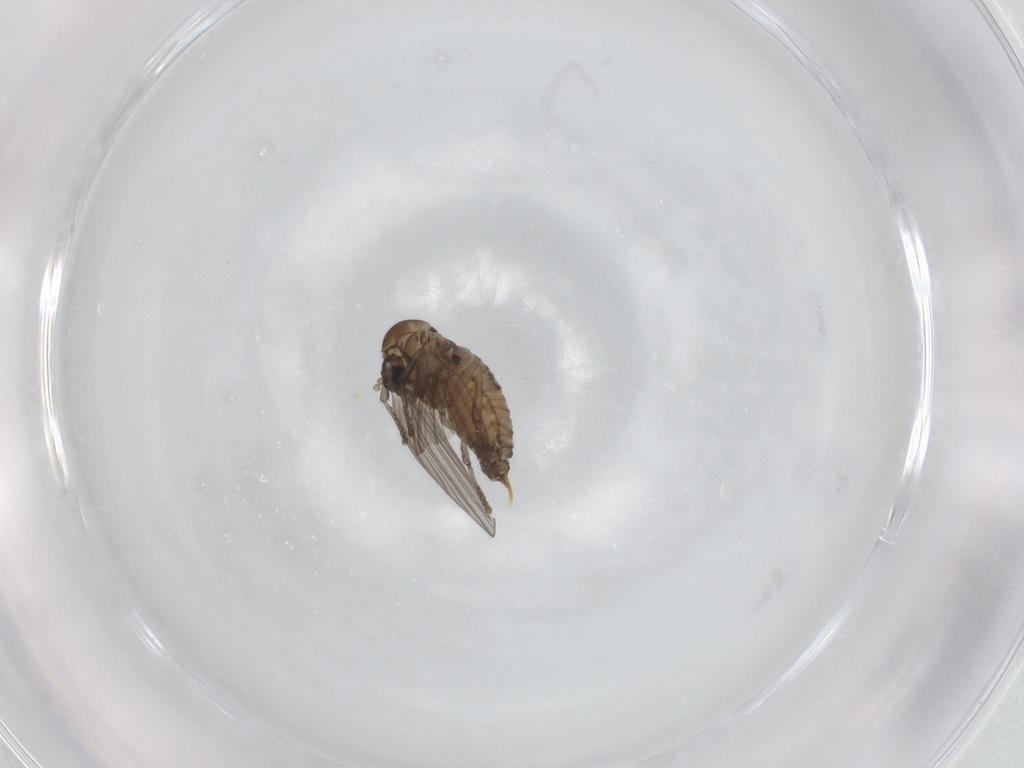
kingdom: Animalia
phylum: Arthropoda
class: Insecta
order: Diptera
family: Psychodidae
